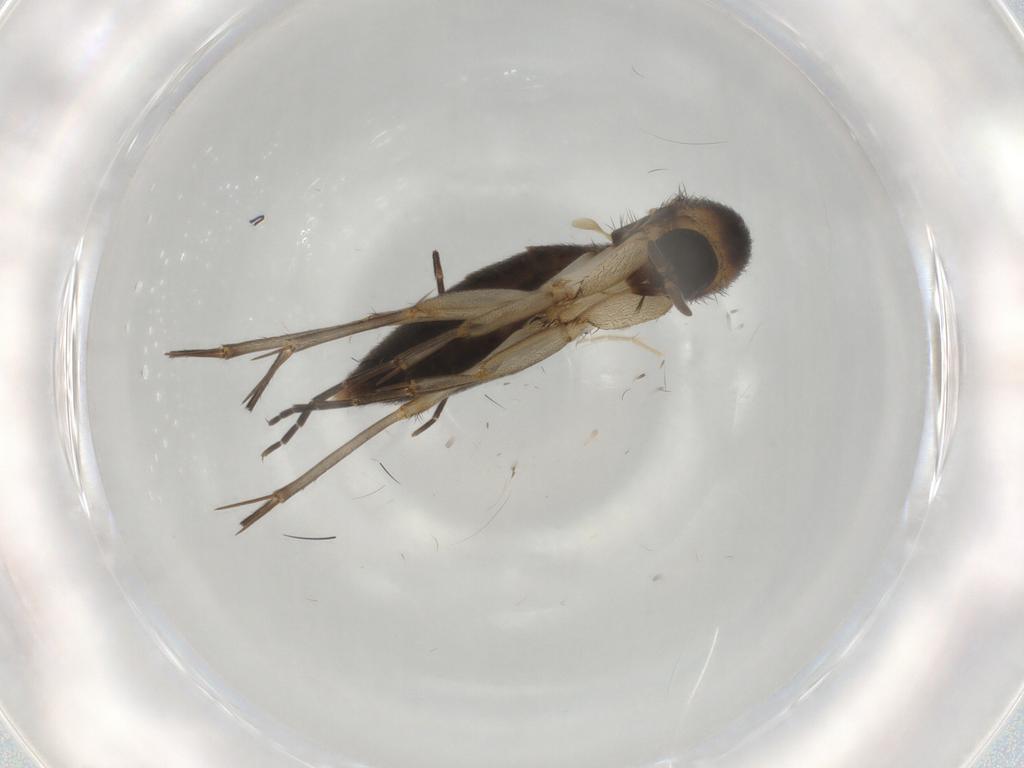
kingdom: Animalia
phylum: Arthropoda
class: Insecta
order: Diptera
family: Mycetophilidae
